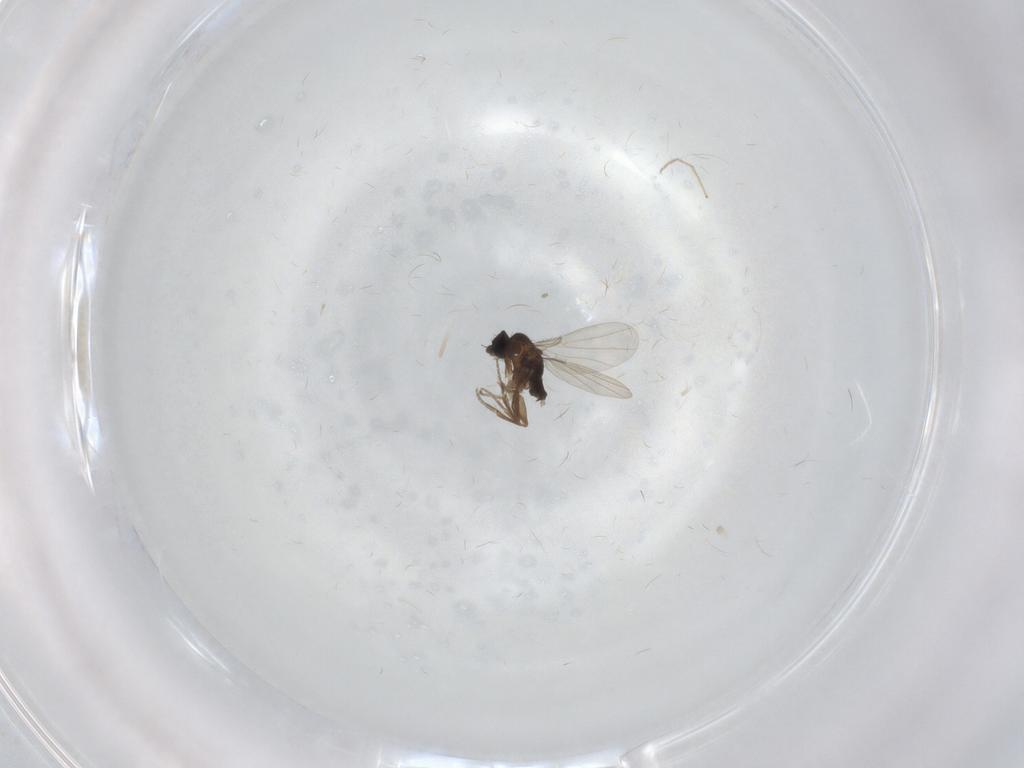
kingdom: Animalia
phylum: Arthropoda
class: Insecta
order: Diptera
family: Phoridae
